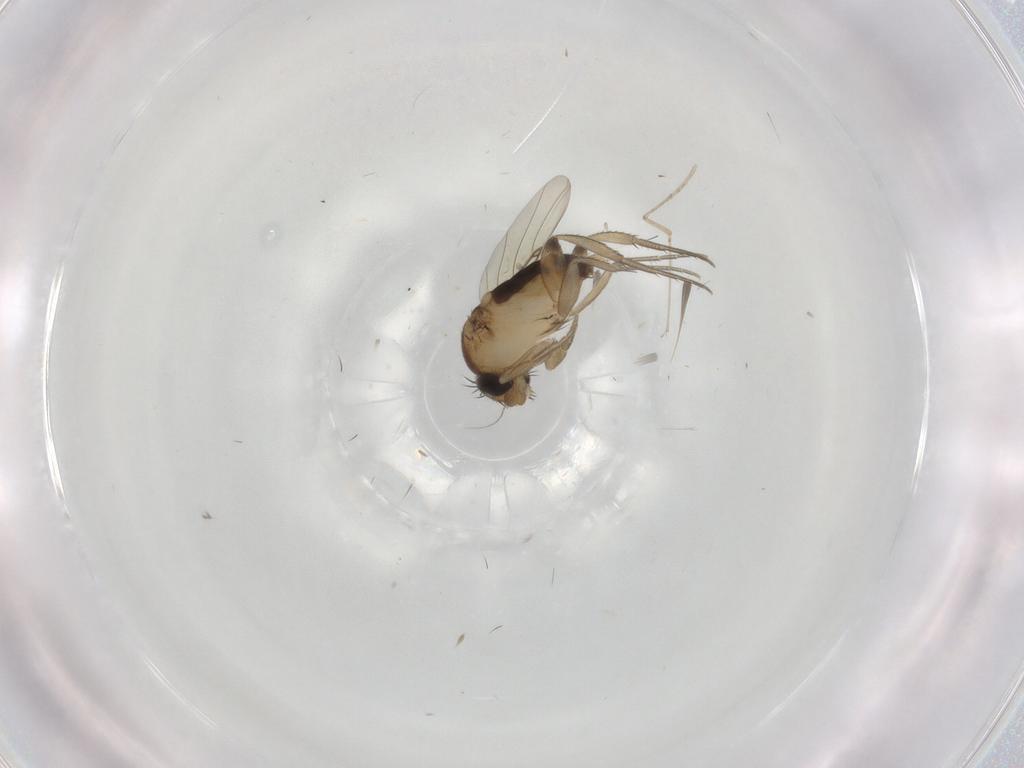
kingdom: Animalia
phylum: Arthropoda
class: Insecta
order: Diptera
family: Cecidomyiidae
